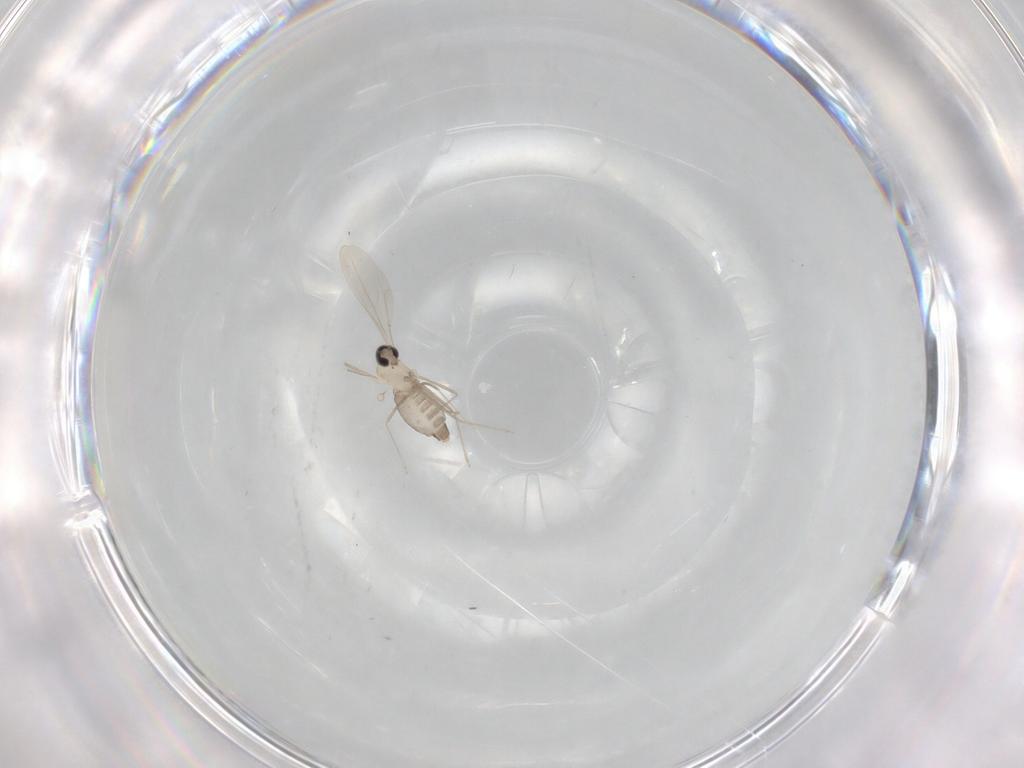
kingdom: Animalia
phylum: Arthropoda
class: Insecta
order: Diptera
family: Cecidomyiidae
